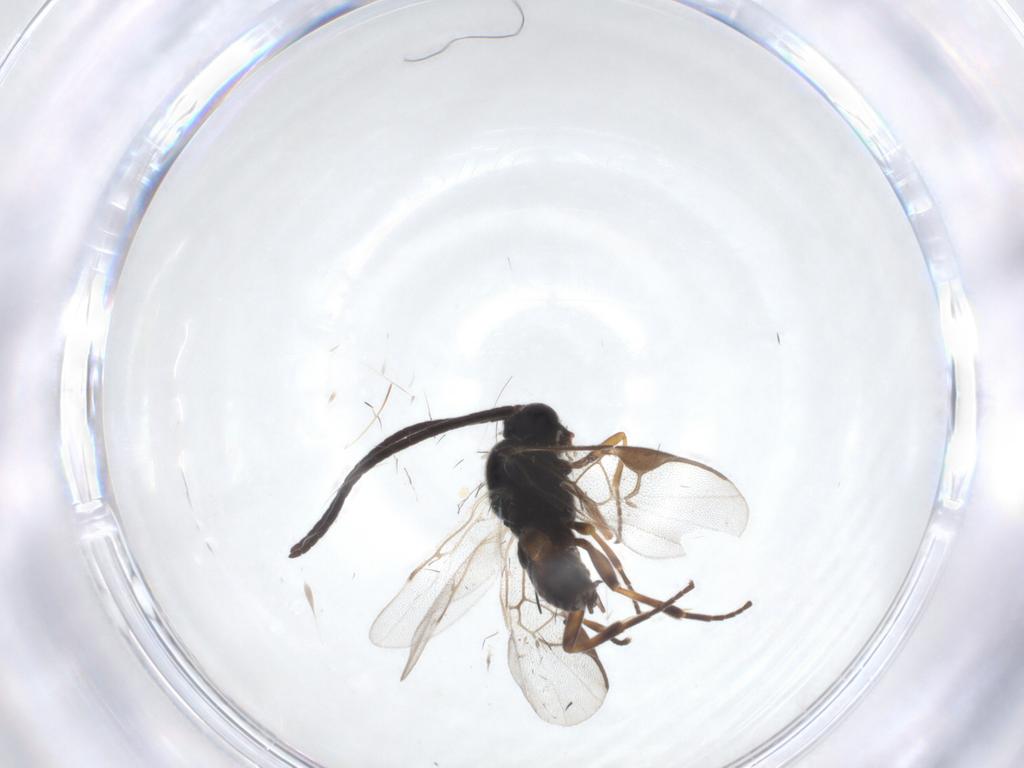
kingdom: Animalia
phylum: Arthropoda
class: Insecta
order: Hymenoptera
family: Braconidae
